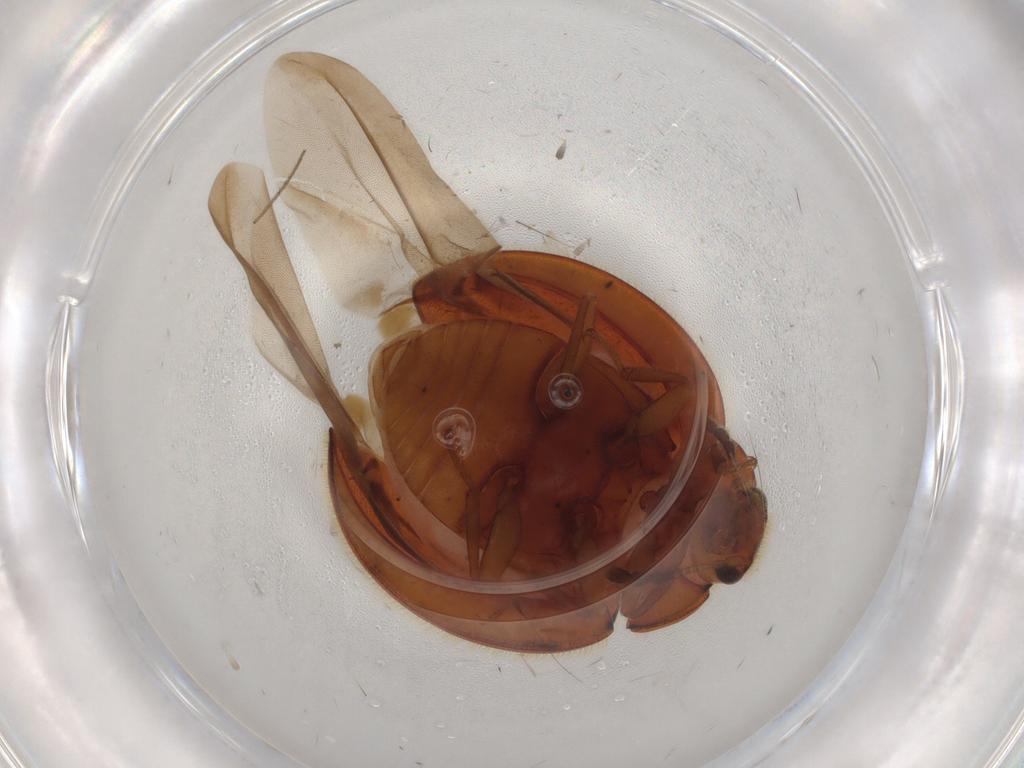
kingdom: Animalia
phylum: Arthropoda
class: Insecta
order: Coleoptera
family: Anamorphidae
